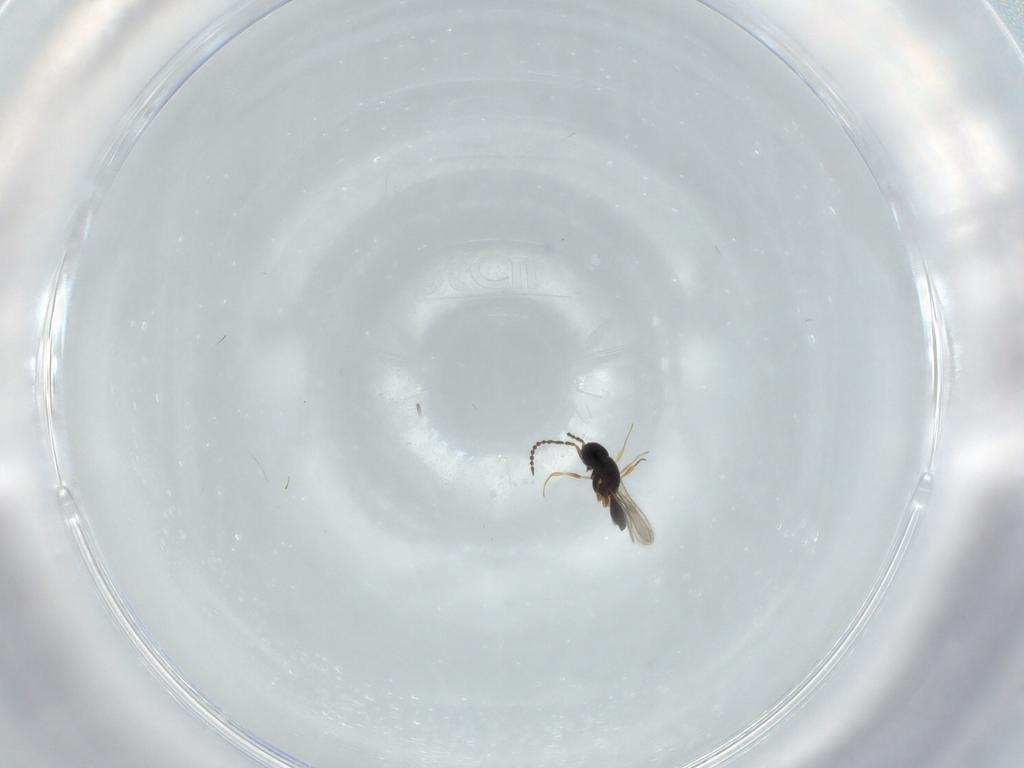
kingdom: Animalia
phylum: Arthropoda
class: Insecta
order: Hymenoptera
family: Scelionidae
